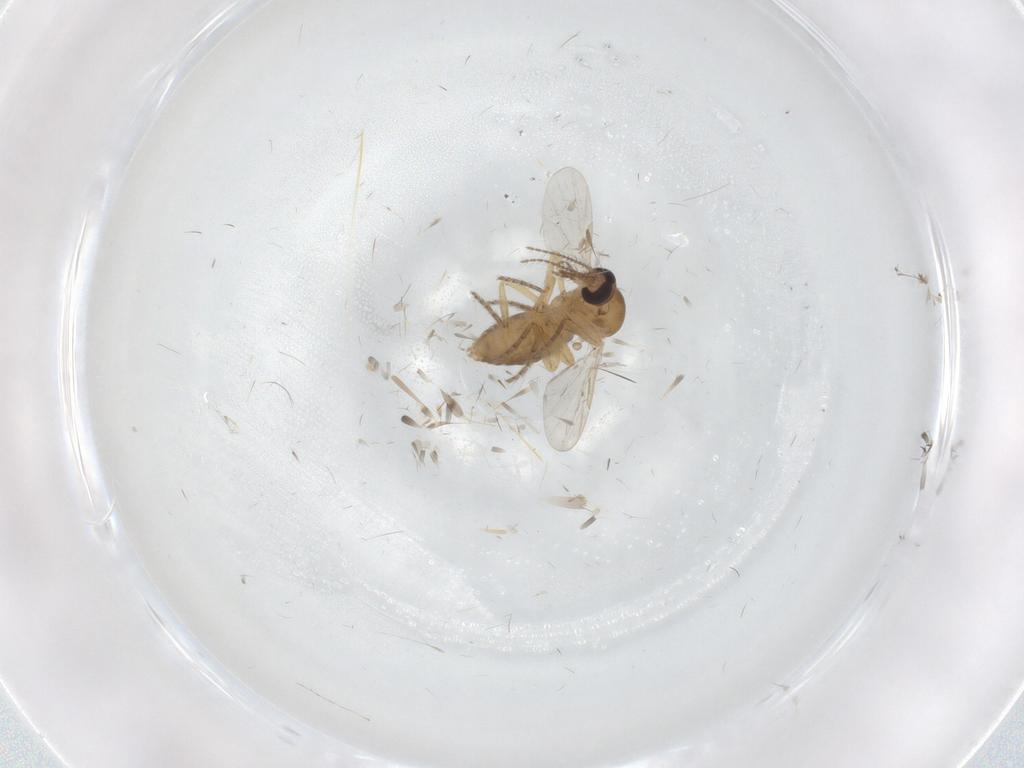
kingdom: Animalia
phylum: Arthropoda
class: Insecta
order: Diptera
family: Ceratopogonidae
